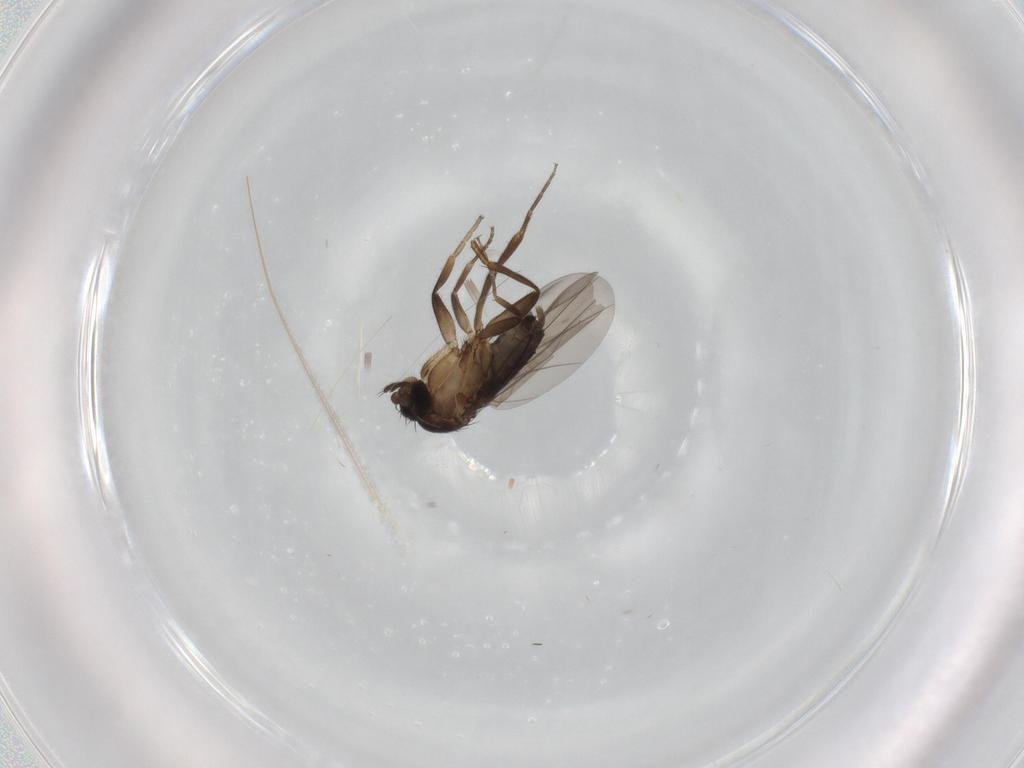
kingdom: Animalia
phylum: Arthropoda
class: Insecta
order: Diptera
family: Phoridae
